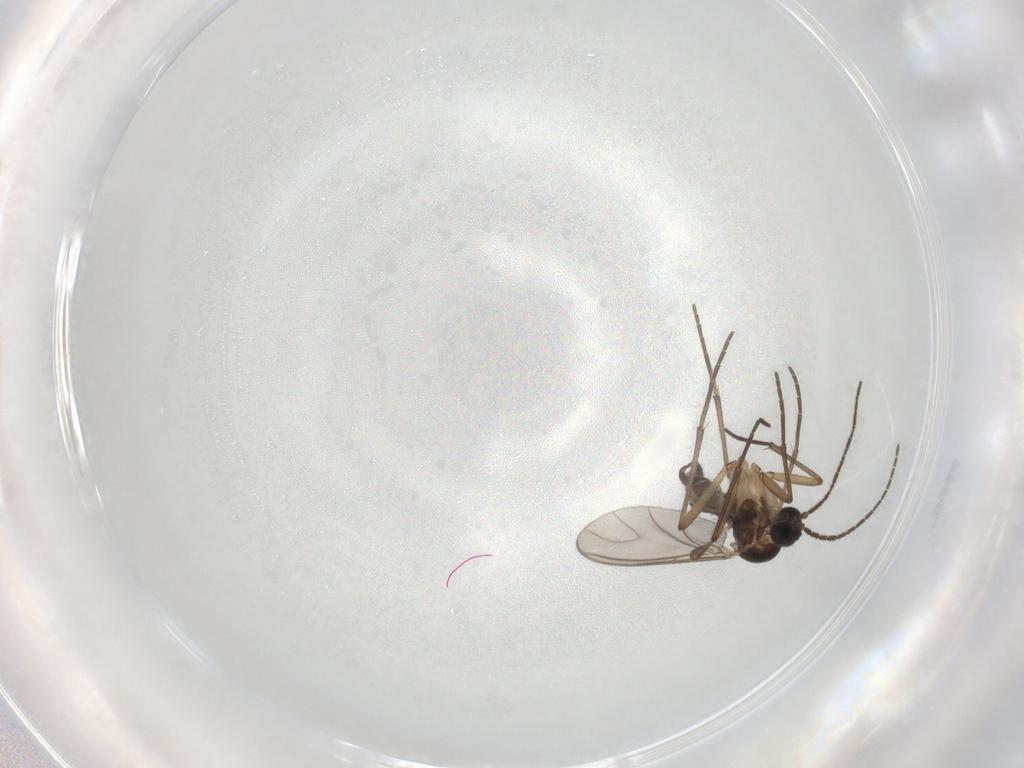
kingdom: Animalia
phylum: Arthropoda
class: Insecta
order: Diptera
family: Sciaridae
